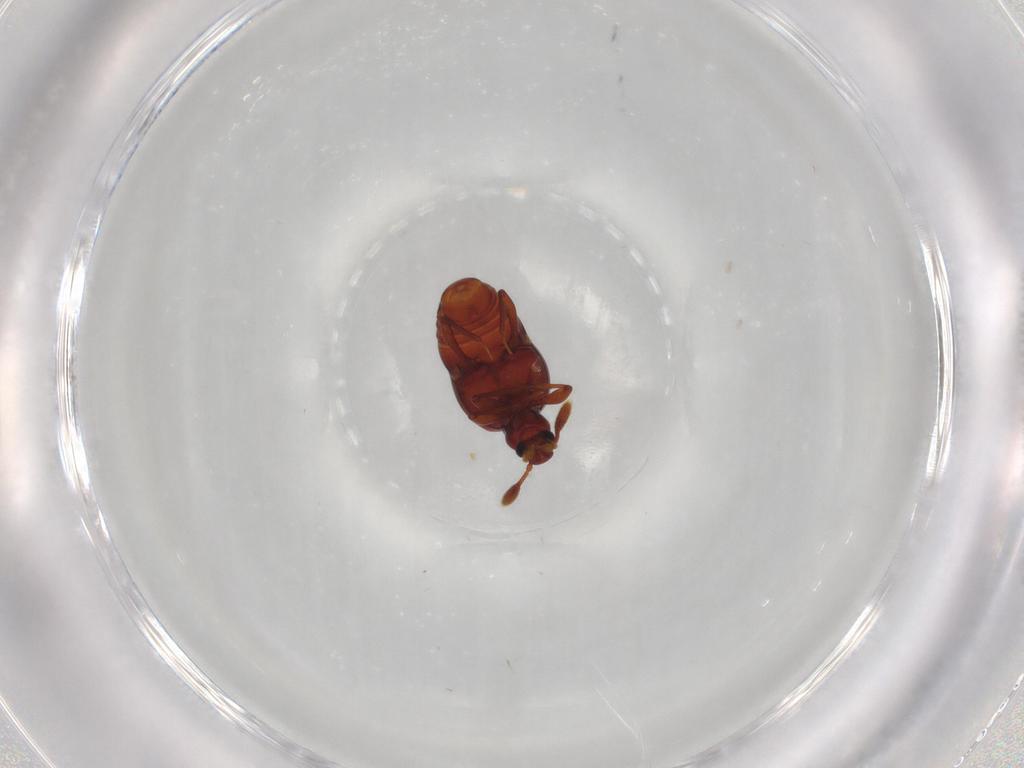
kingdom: Animalia
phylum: Arthropoda
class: Insecta
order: Coleoptera
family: Staphylinidae
